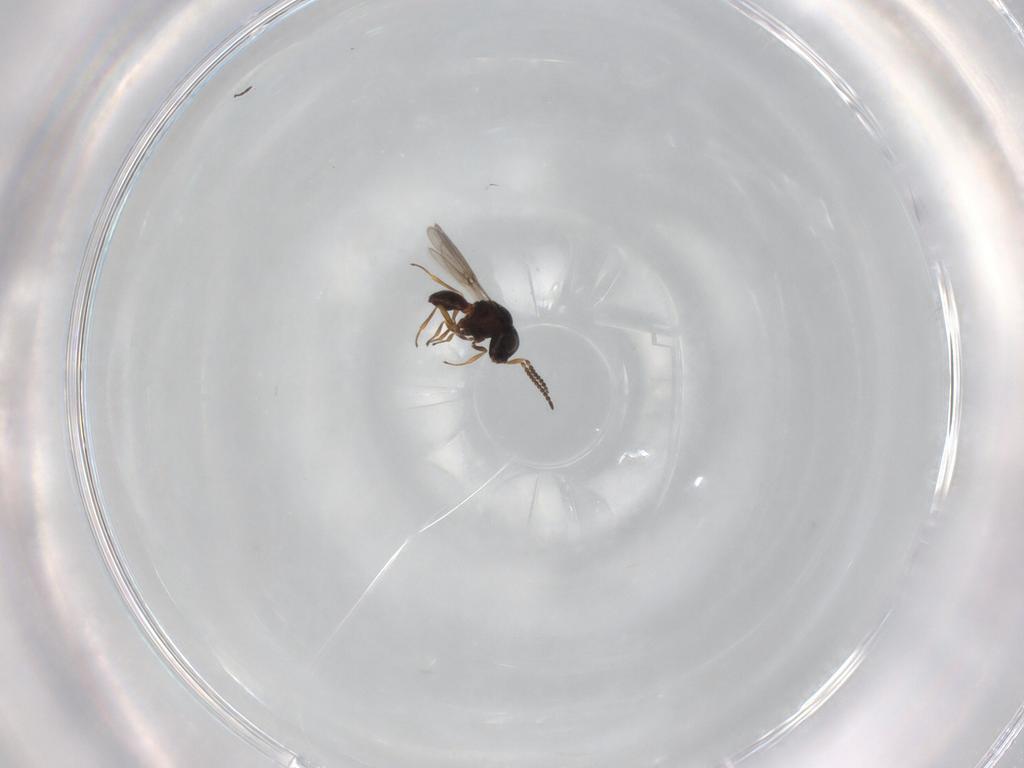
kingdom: Animalia
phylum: Arthropoda
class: Insecta
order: Hymenoptera
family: Scelionidae
